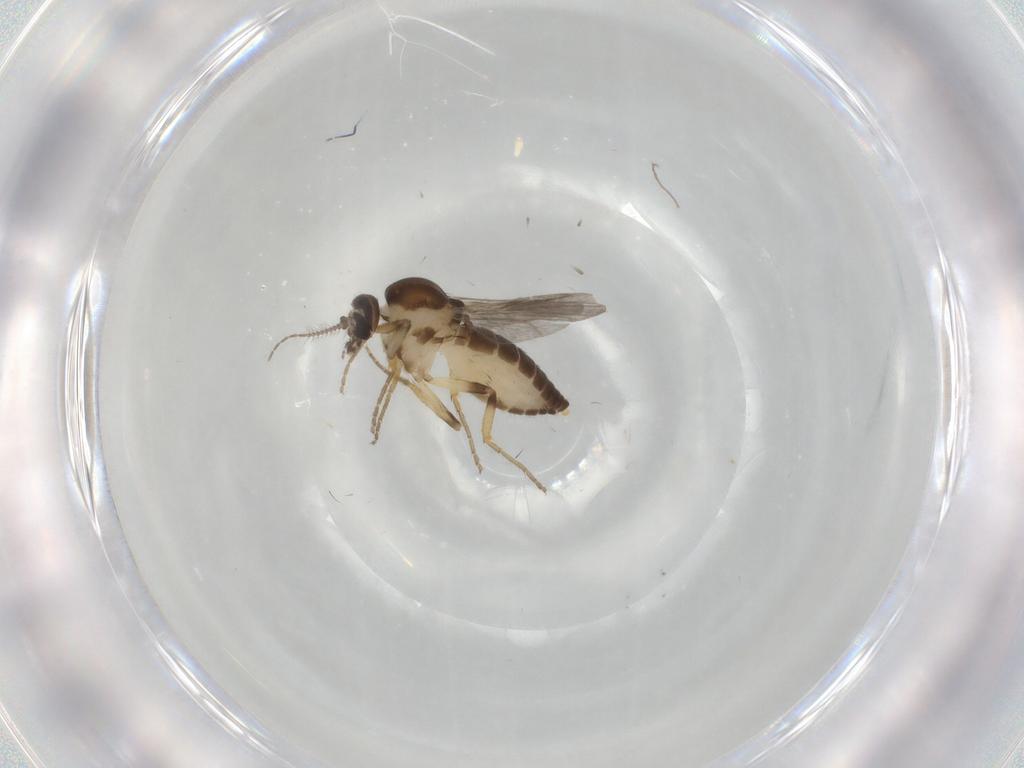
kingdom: Animalia
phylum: Arthropoda
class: Insecta
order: Diptera
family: Ceratopogonidae
